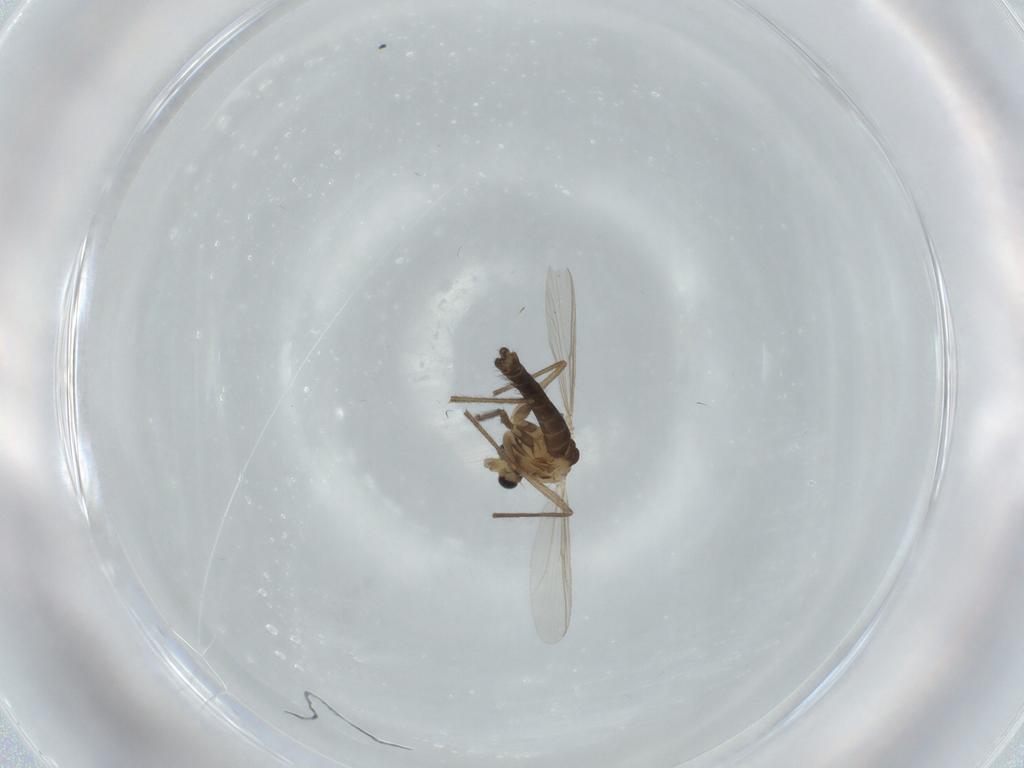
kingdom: Animalia
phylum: Arthropoda
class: Insecta
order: Diptera
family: Chironomidae
